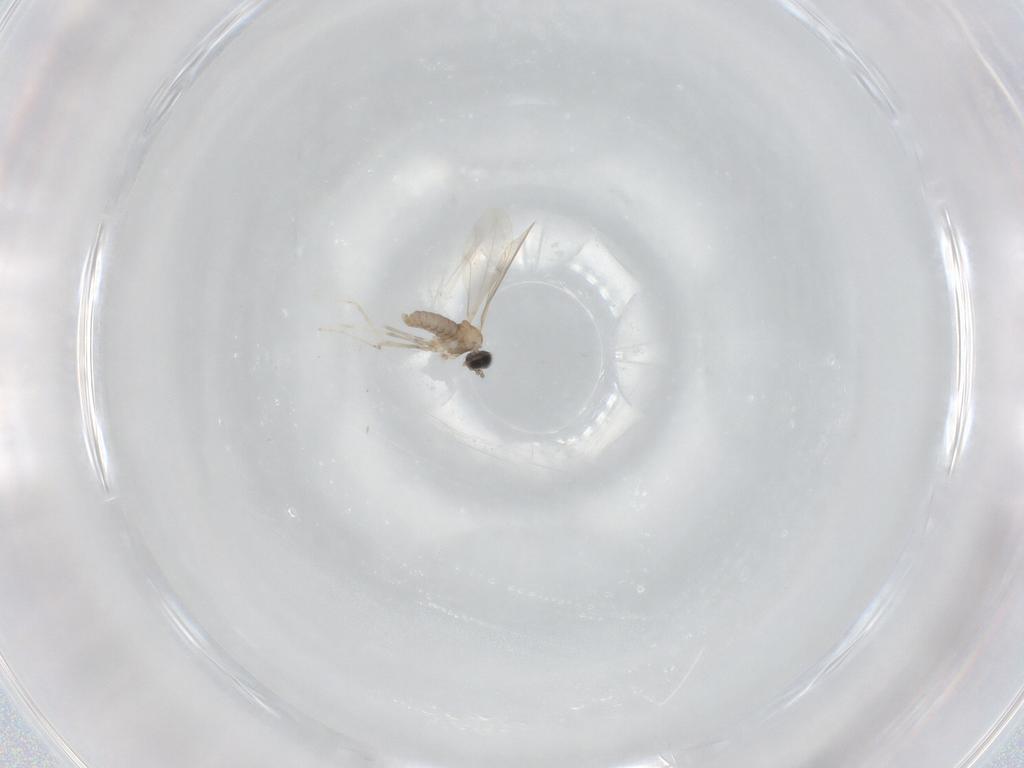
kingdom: Animalia
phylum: Arthropoda
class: Insecta
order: Diptera
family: Cecidomyiidae
